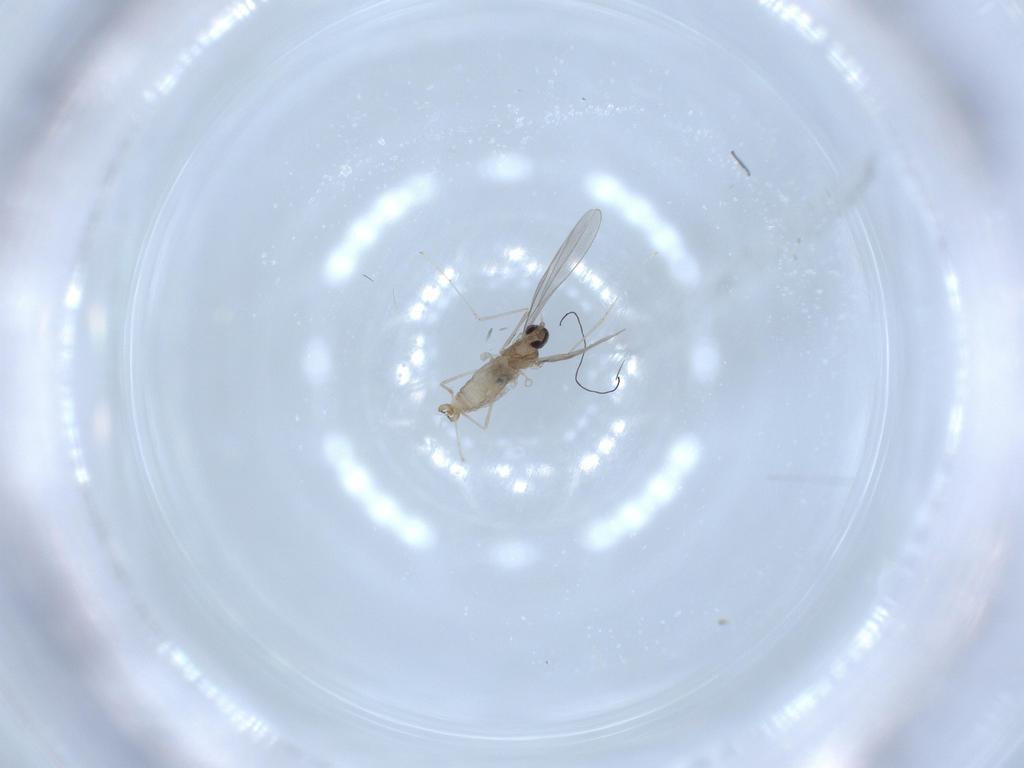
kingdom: Animalia
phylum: Arthropoda
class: Insecta
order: Diptera
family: Cecidomyiidae
